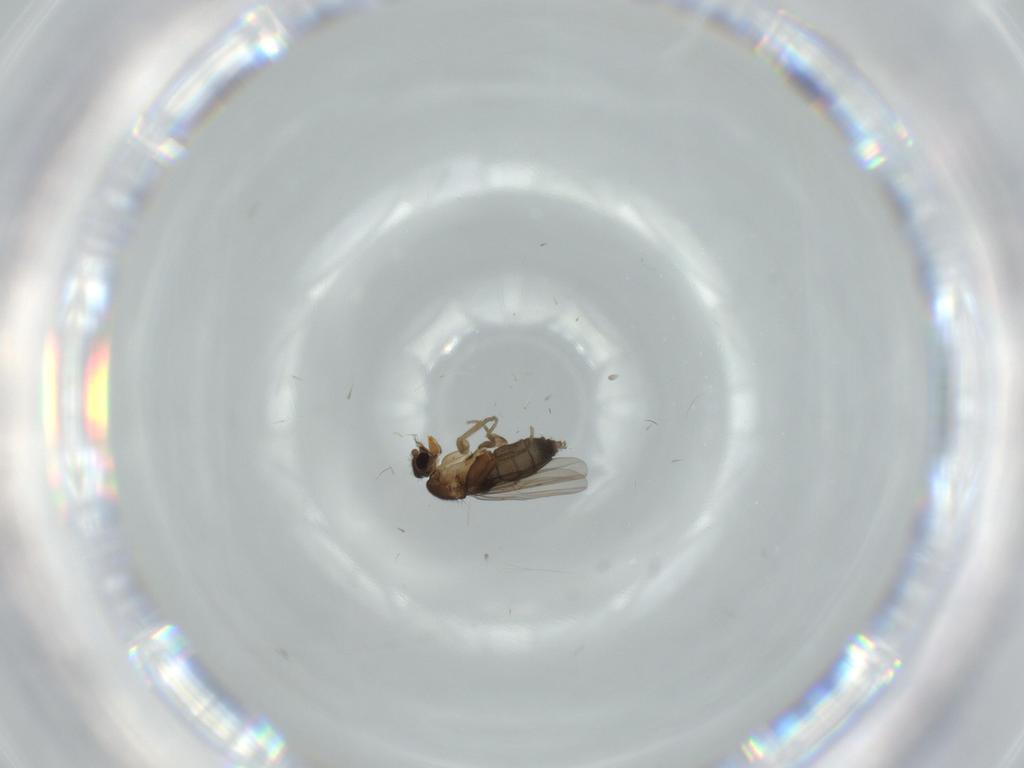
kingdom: Animalia
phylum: Arthropoda
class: Insecta
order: Diptera
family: Phoridae
